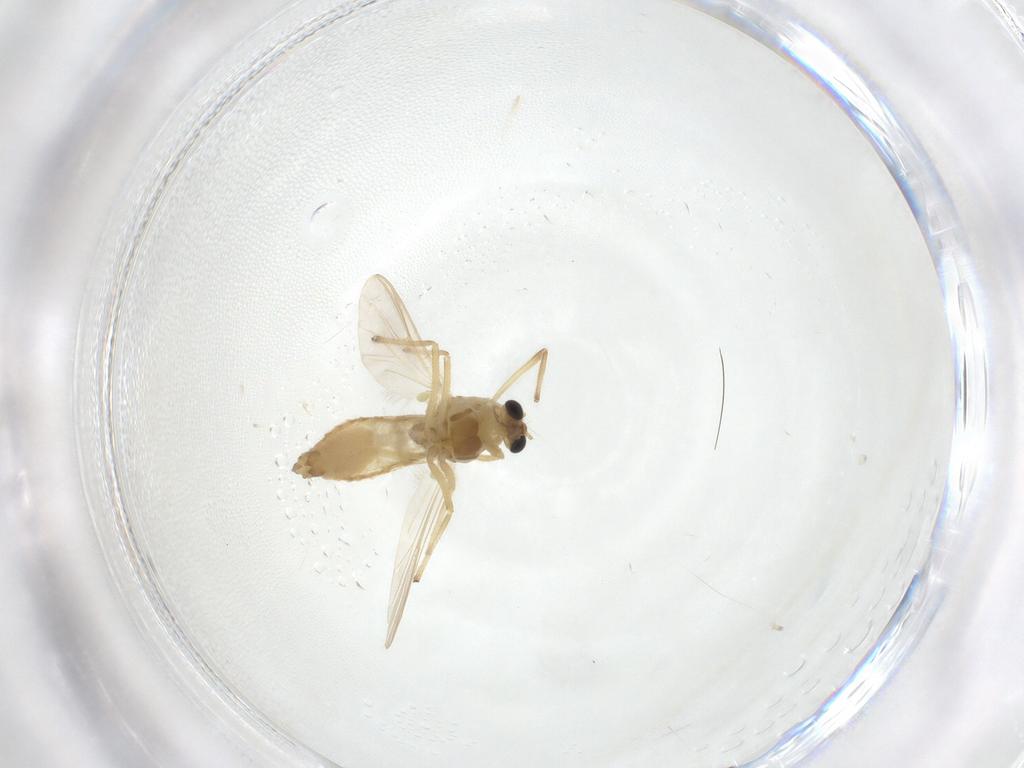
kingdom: Animalia
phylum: Arthropoda
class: Insecta
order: Diptera
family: Chironomidae
